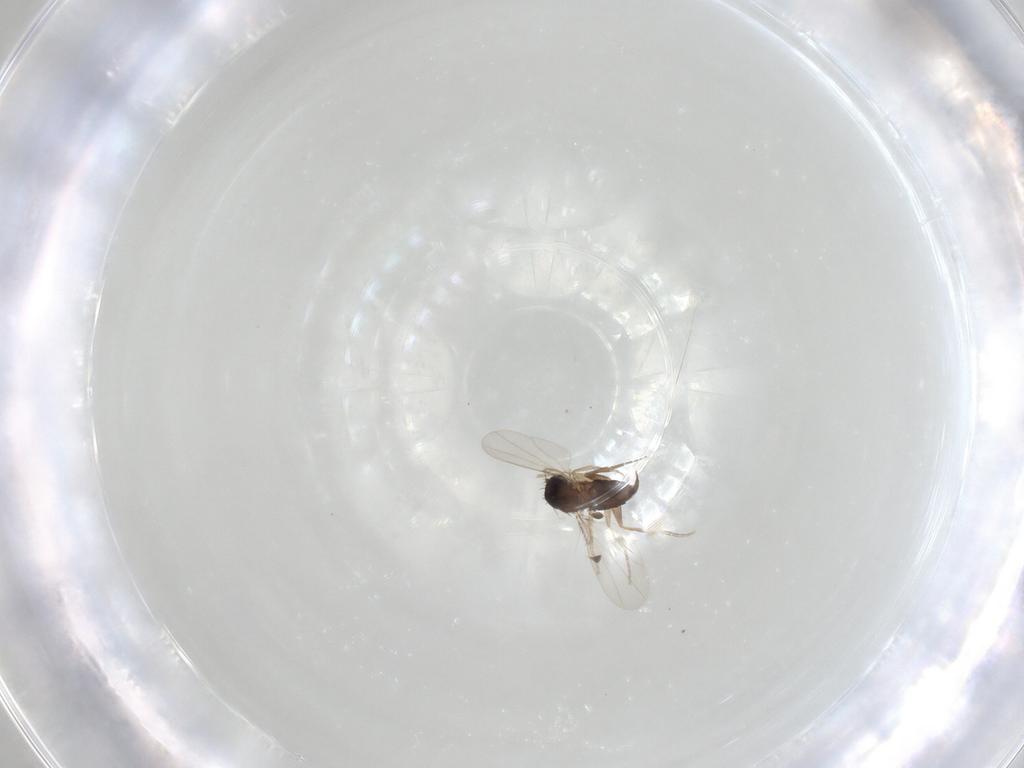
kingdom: Animalia
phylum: Arthropoda
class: Insecta
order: Diptera
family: Phoridae
